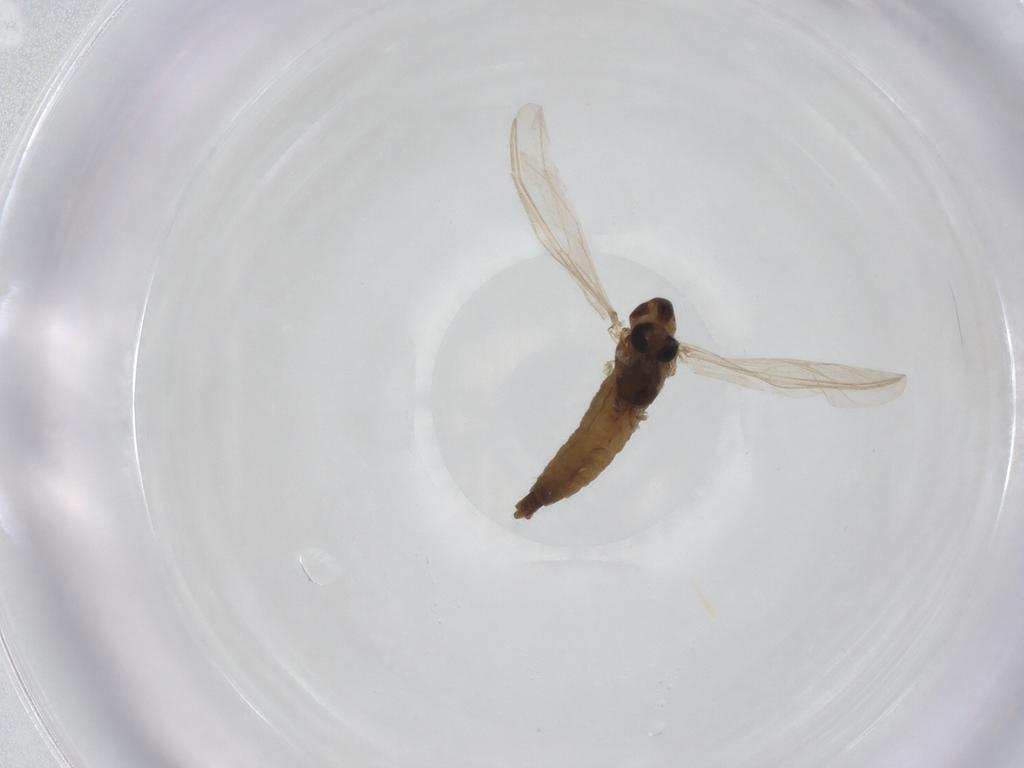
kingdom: Animalia
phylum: Arthropoda
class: Insecta
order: Diptera
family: Chironomidae
